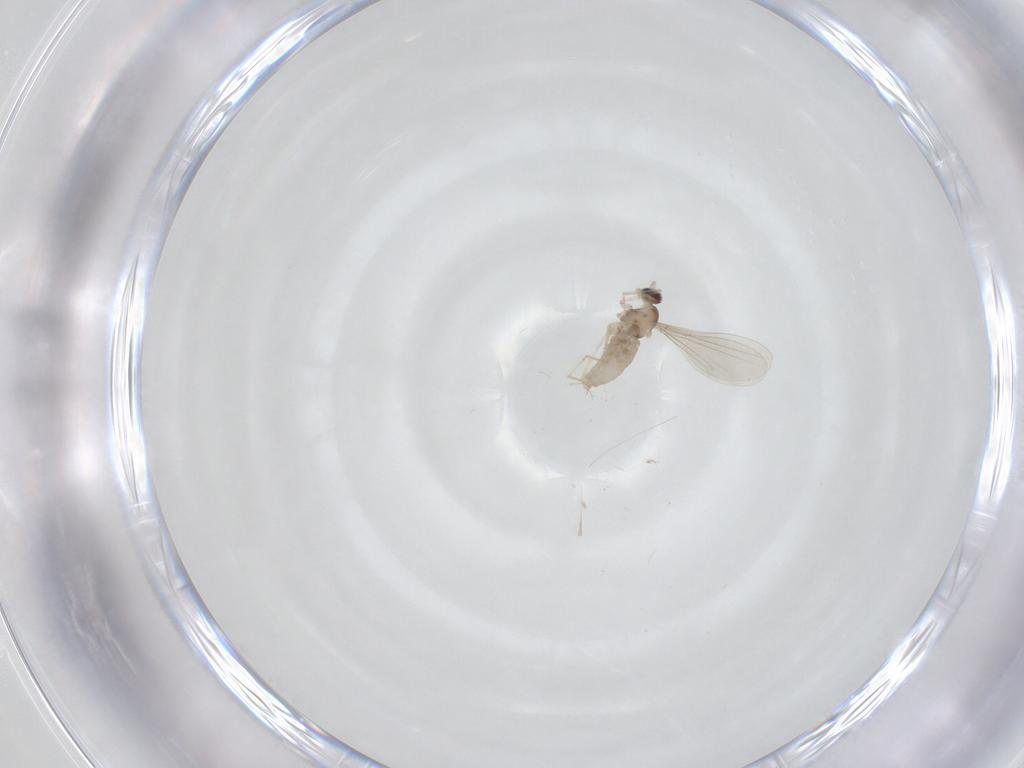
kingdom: Animalia
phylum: Arthropoda
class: Insecta
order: Diptera
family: Cecidomyiidae
